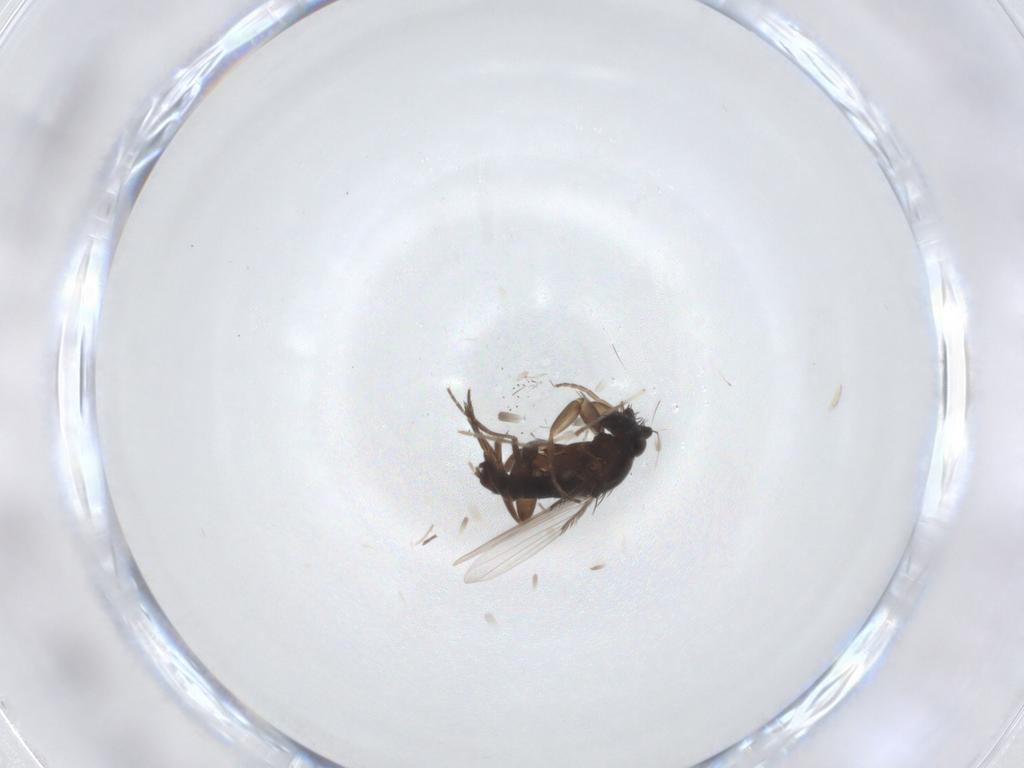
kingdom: Animalia
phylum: Arthropoda
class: Insecta
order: Diptera
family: Chironomidae
